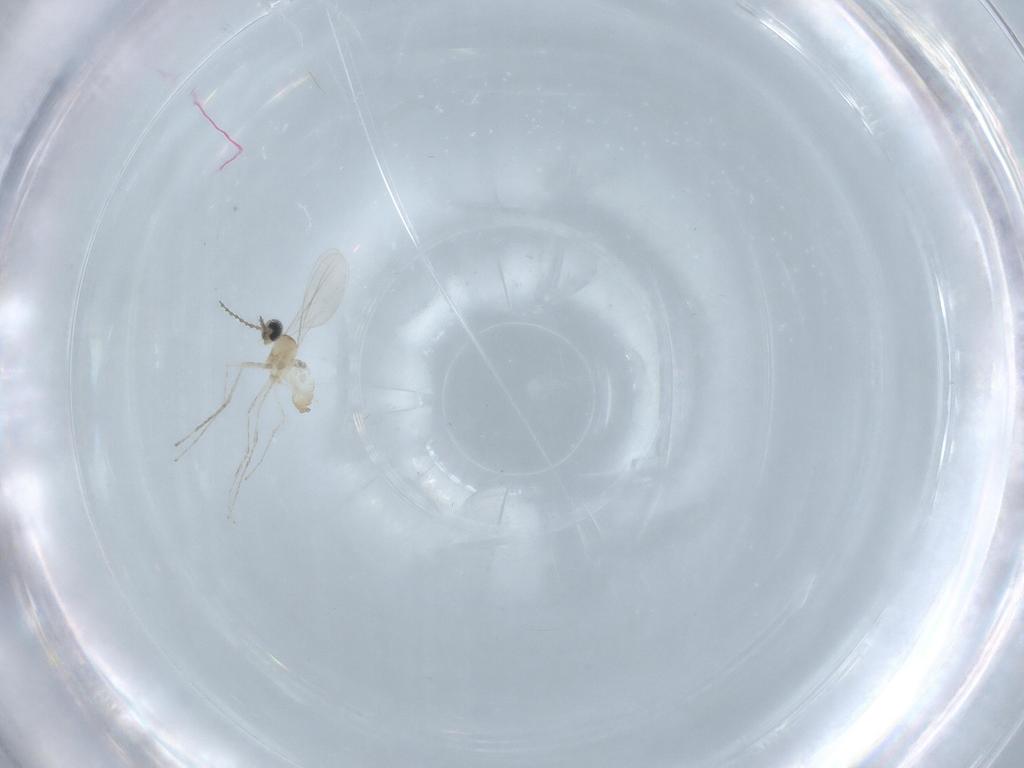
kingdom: Animalia
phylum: Arthropoda
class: Insecta
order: Diptera
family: Cecidomyiidae
